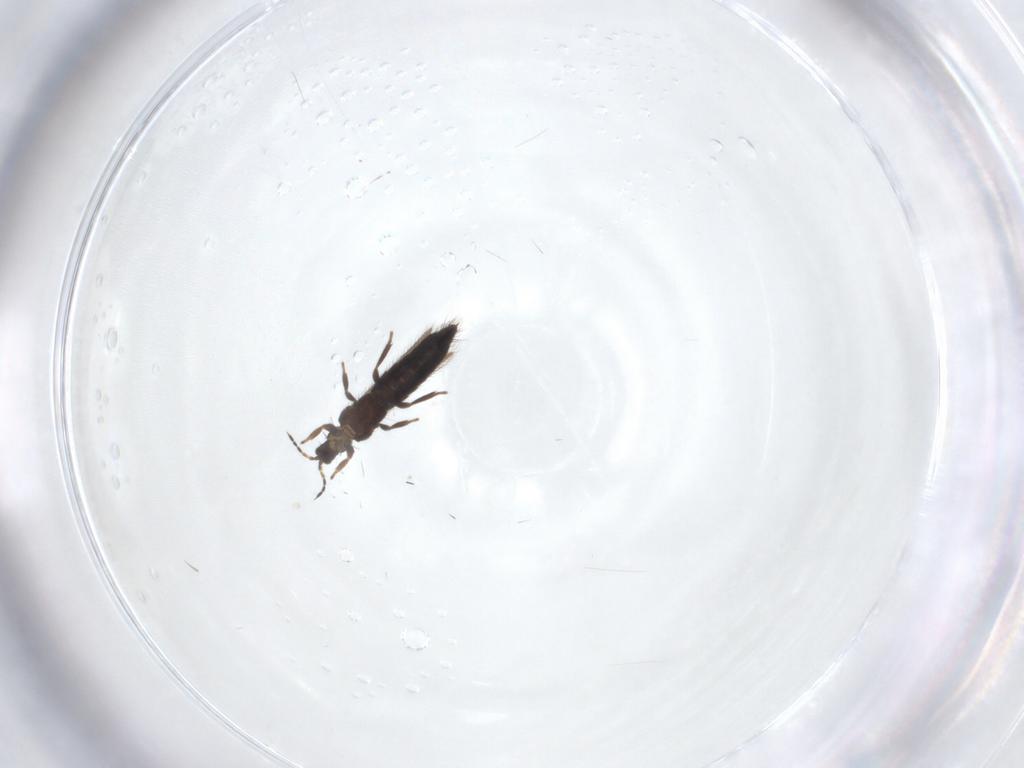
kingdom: Animalia
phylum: Arthropoda
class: Insecta
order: Thysanoptera
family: Thripidae
